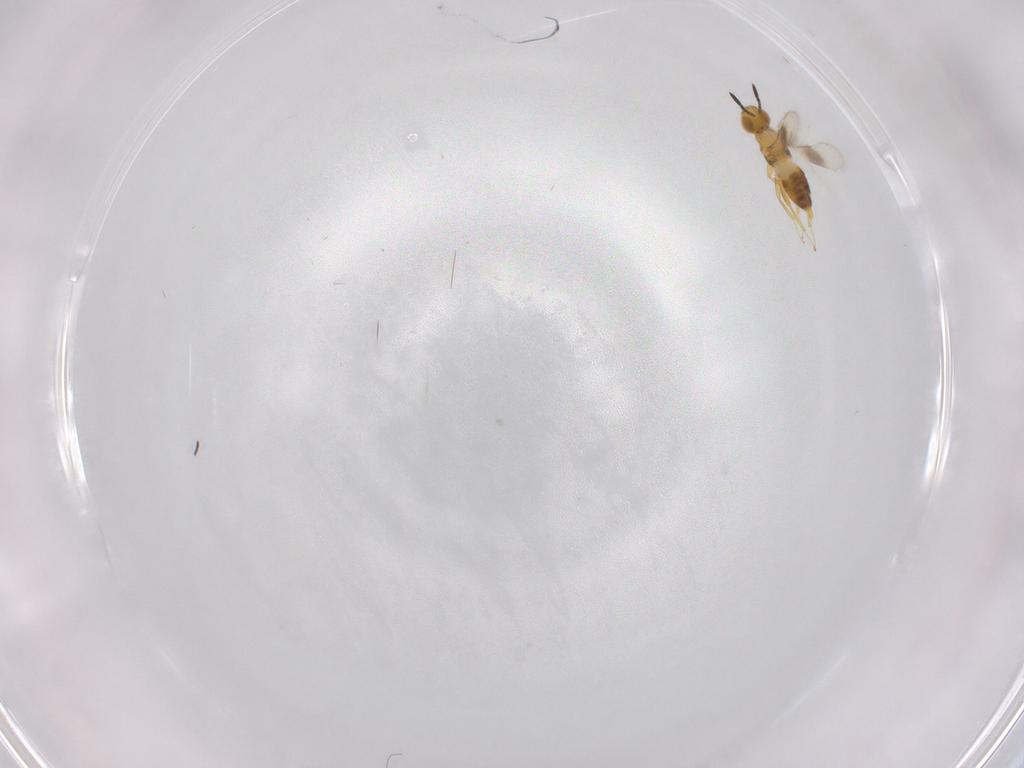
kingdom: Animalia
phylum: Arthropoda
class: Insecta
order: Hymenoptera
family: Encyrtidae
